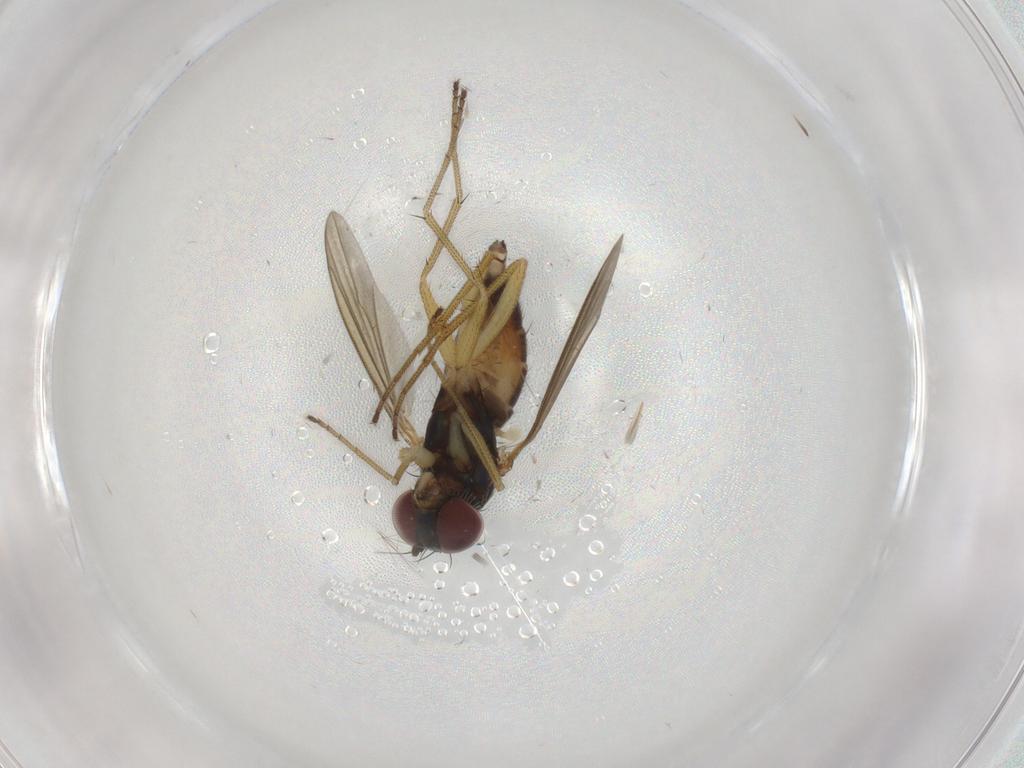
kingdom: Animalia
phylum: Arthropoda
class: Insecta
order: Diptera
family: Dolichopodidae
